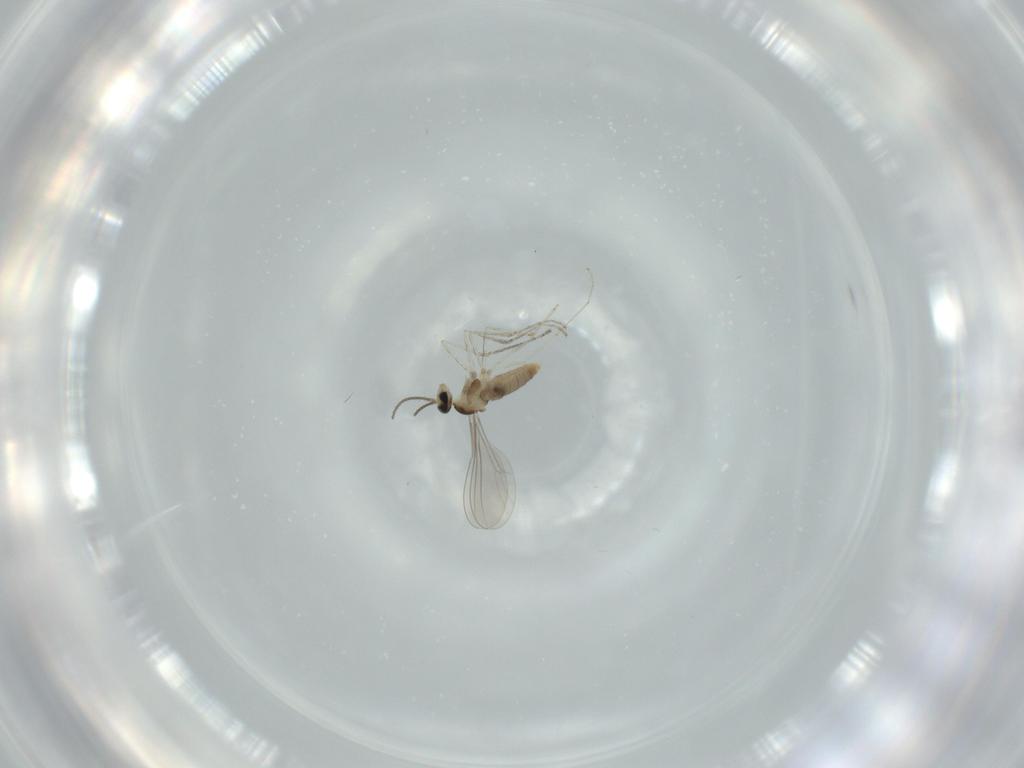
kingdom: Animalia
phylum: Arthropoda
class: Insecta
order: Diptera
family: Cecidomyiidae
